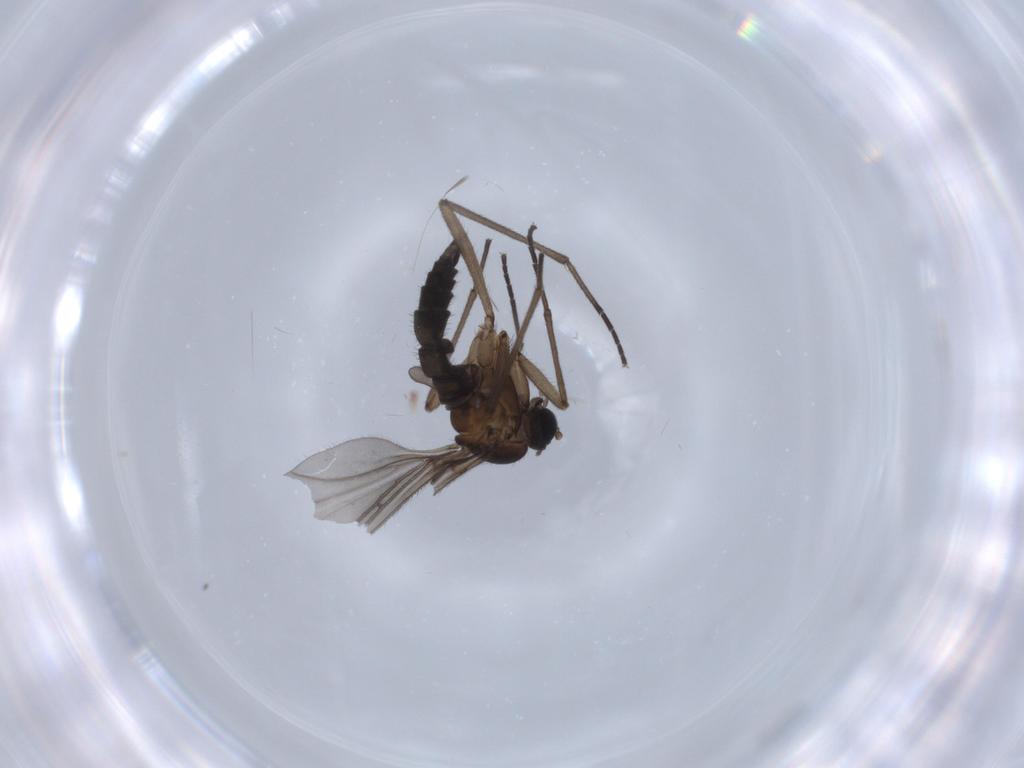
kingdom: Animalia
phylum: Arthropoda
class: Insecta
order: Diptera
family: Sciaridae
